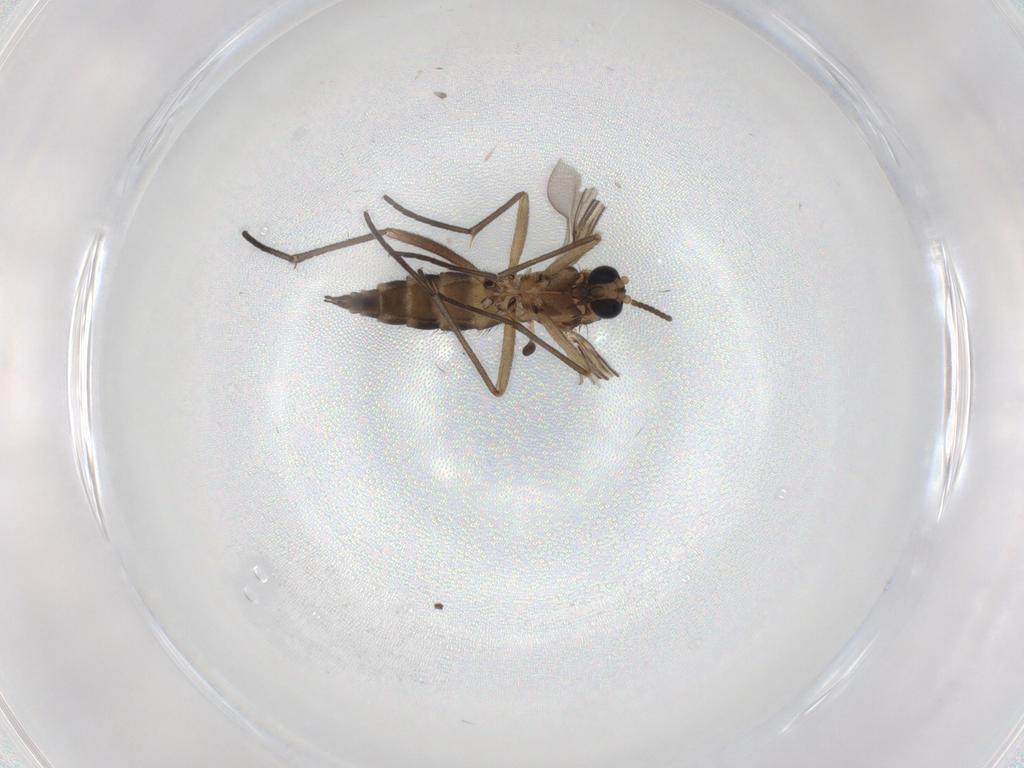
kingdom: Animalia
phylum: Arthropoda
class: Insecta
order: Diptera
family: Sciaridae
